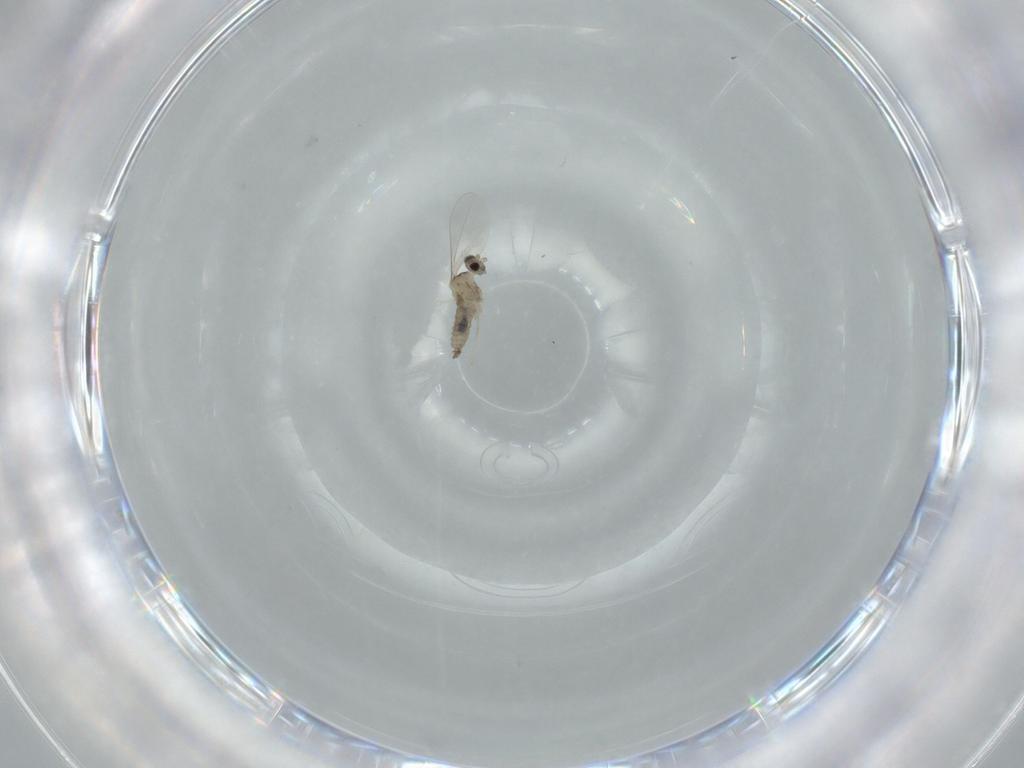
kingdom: Animalia
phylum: Arthropoda
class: Insecta
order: Diptera
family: Cecidomyiidae
